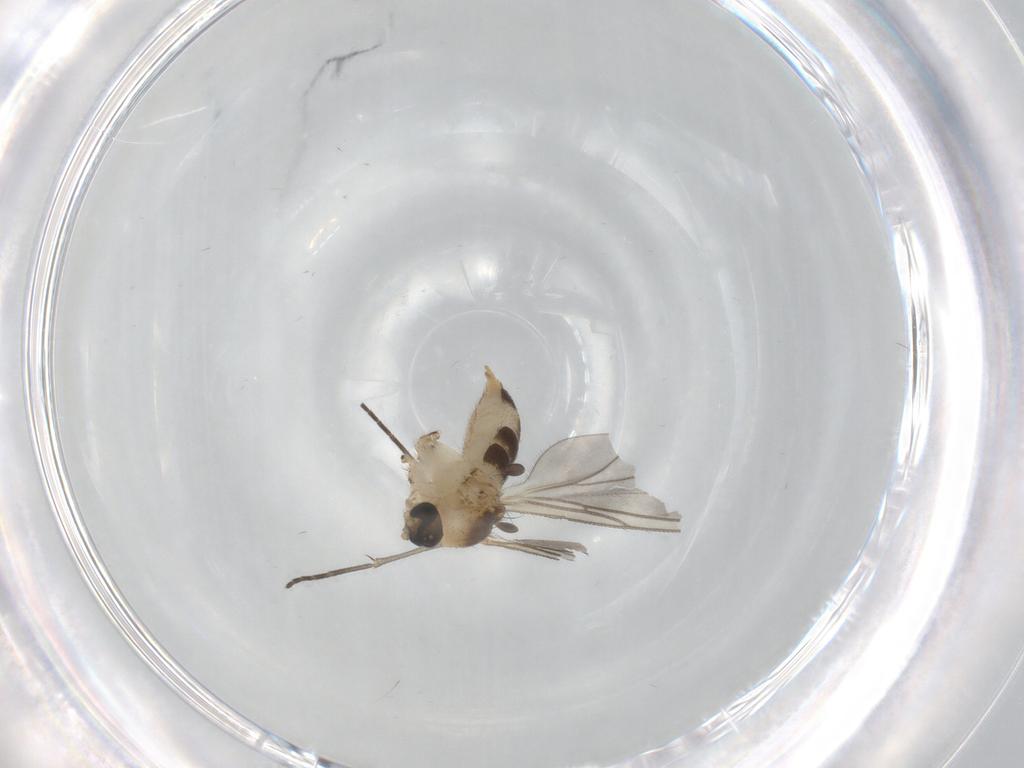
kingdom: Animalia
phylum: Arthropoda
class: Insecta
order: Diptera
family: Sciaridae
